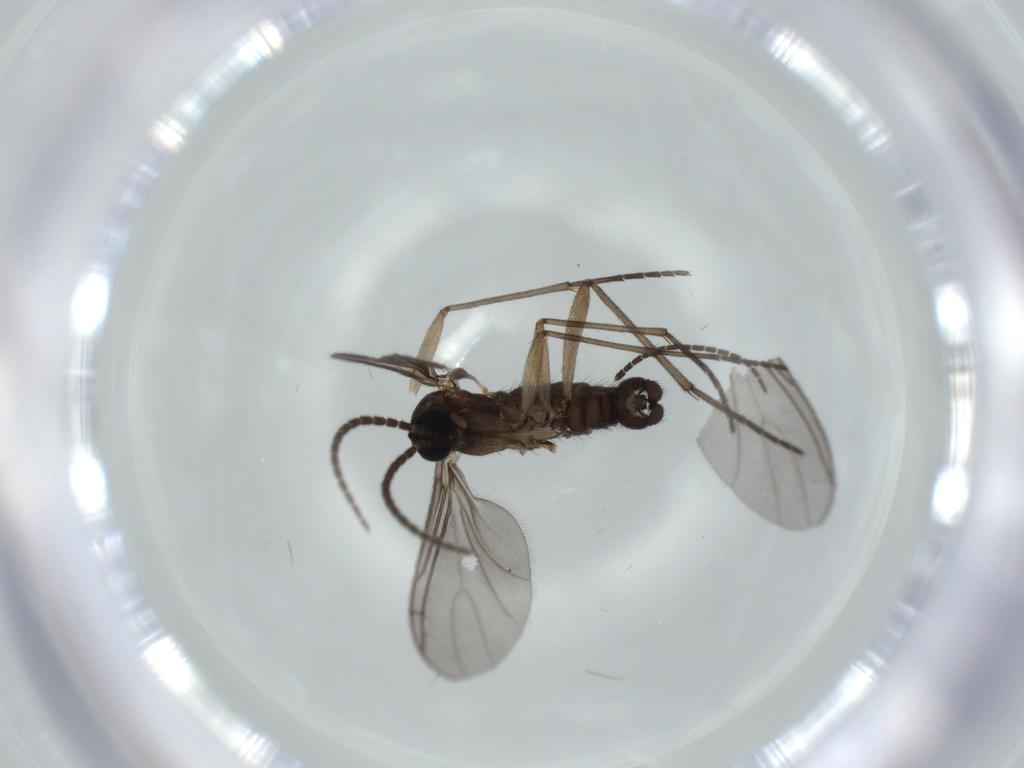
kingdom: Animalia
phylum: Arthropoda
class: Insecta
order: Diptera
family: Sciaridae
